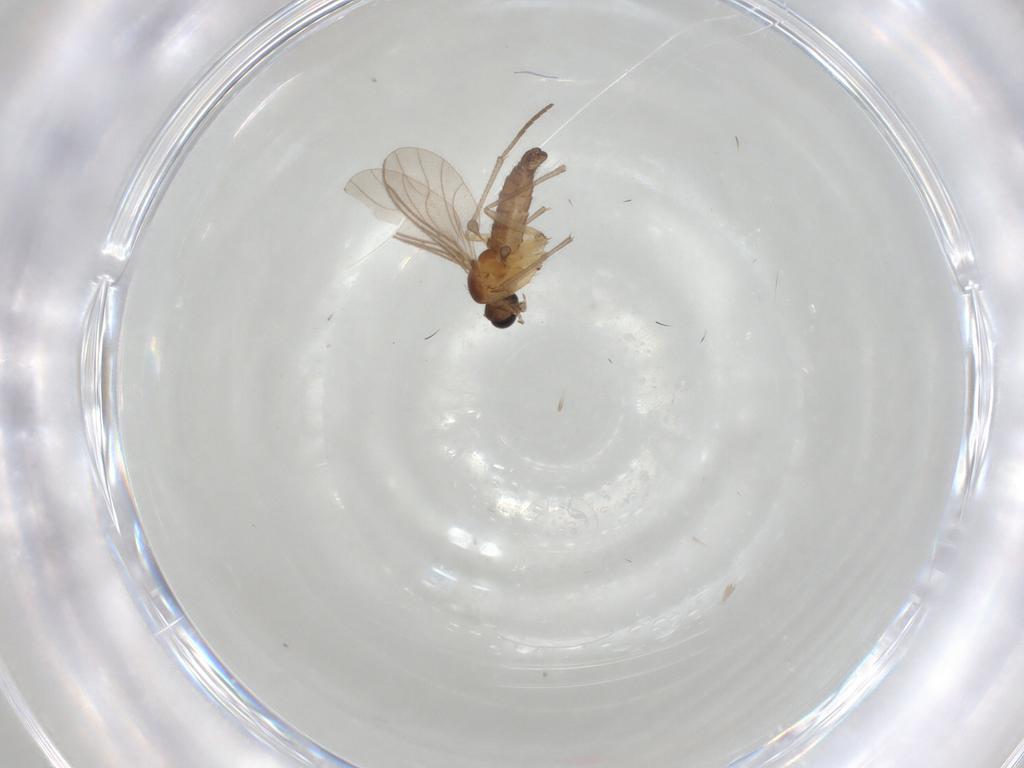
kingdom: Animalia
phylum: Arthropoda
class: Insecta
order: Diptera
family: Sciaridae
